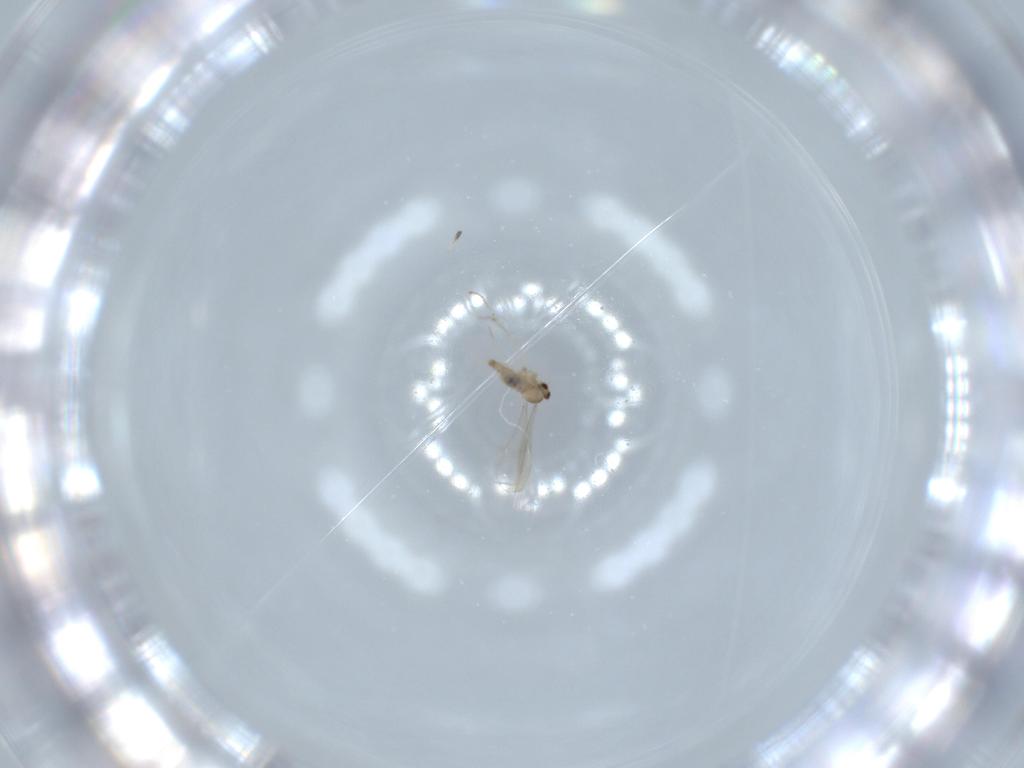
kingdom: Animalia
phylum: Arthropoda
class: Insecta
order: Diptera
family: Cecidomyiidae
